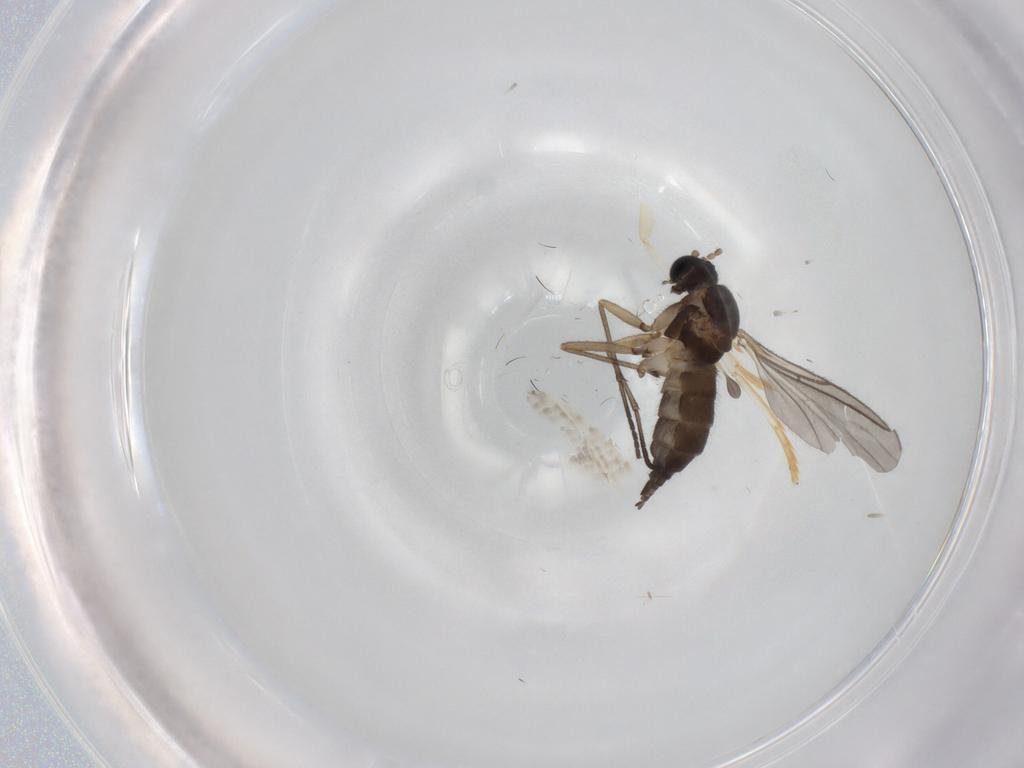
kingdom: Animalia
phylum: Arthropoda
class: Insecta
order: Diptera
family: Sciaridae
